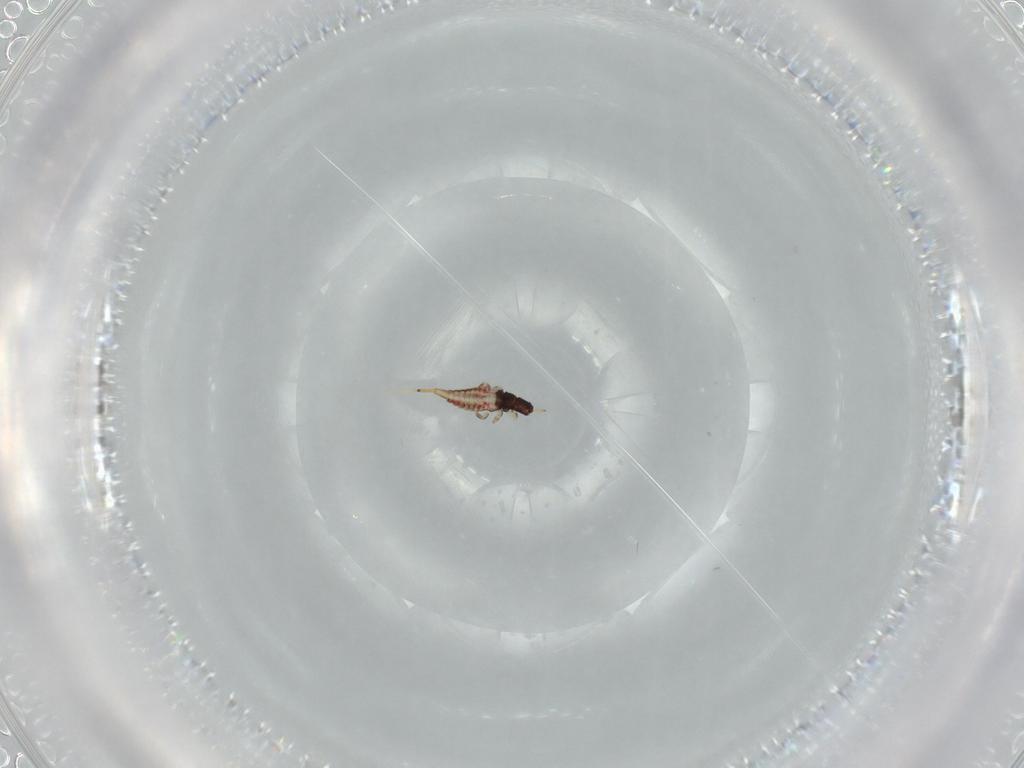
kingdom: Animalia
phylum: Arthropoda
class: Insecta
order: Thysanoptera
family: Phlaeothripidae
